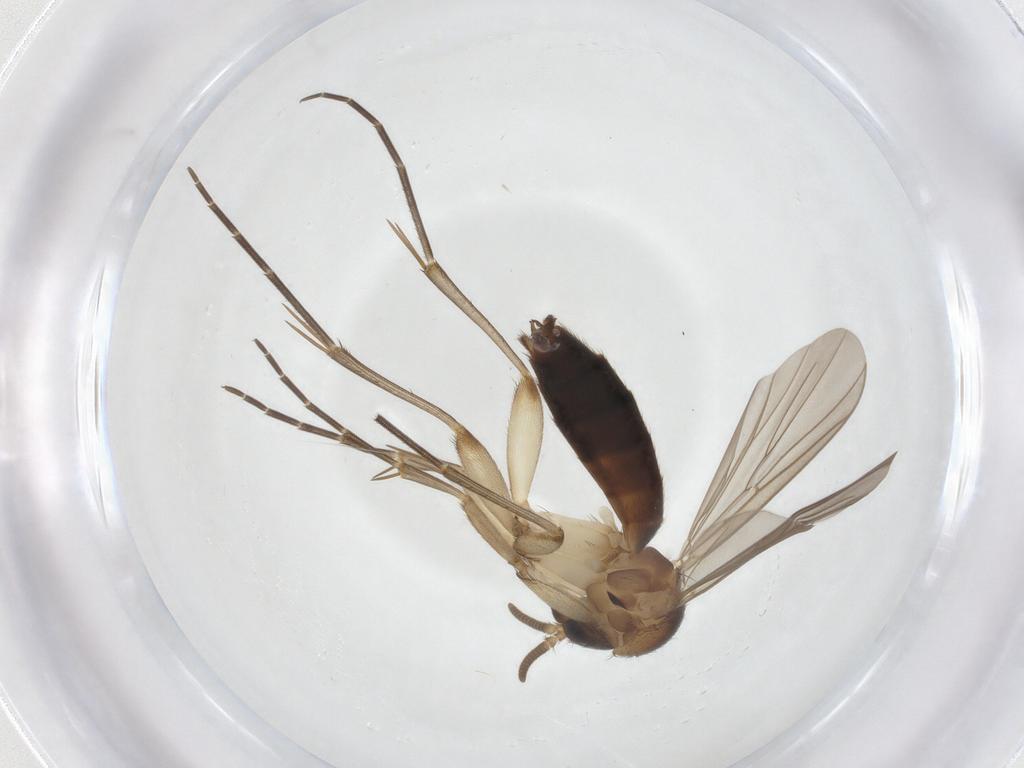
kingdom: Animalia
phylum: Arthropoda
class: Insecta
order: Diptera
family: Mycetophilidae
